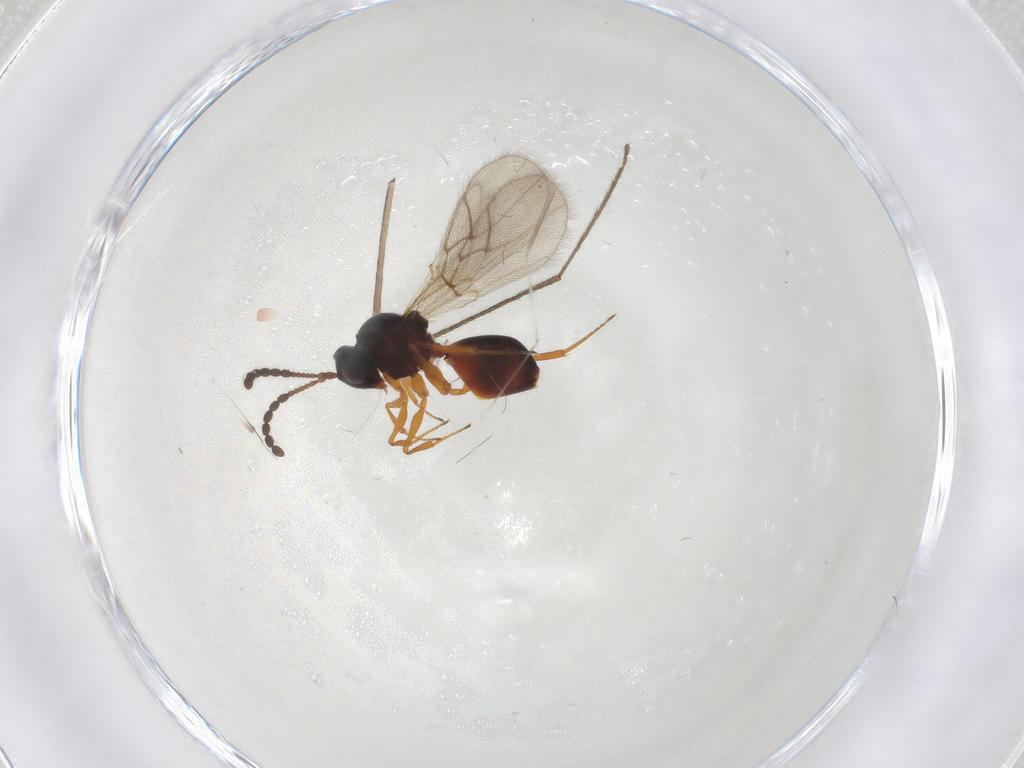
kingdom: Animalia
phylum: Arthropoda
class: Insecta
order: Hymenoptera
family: Figitidae
